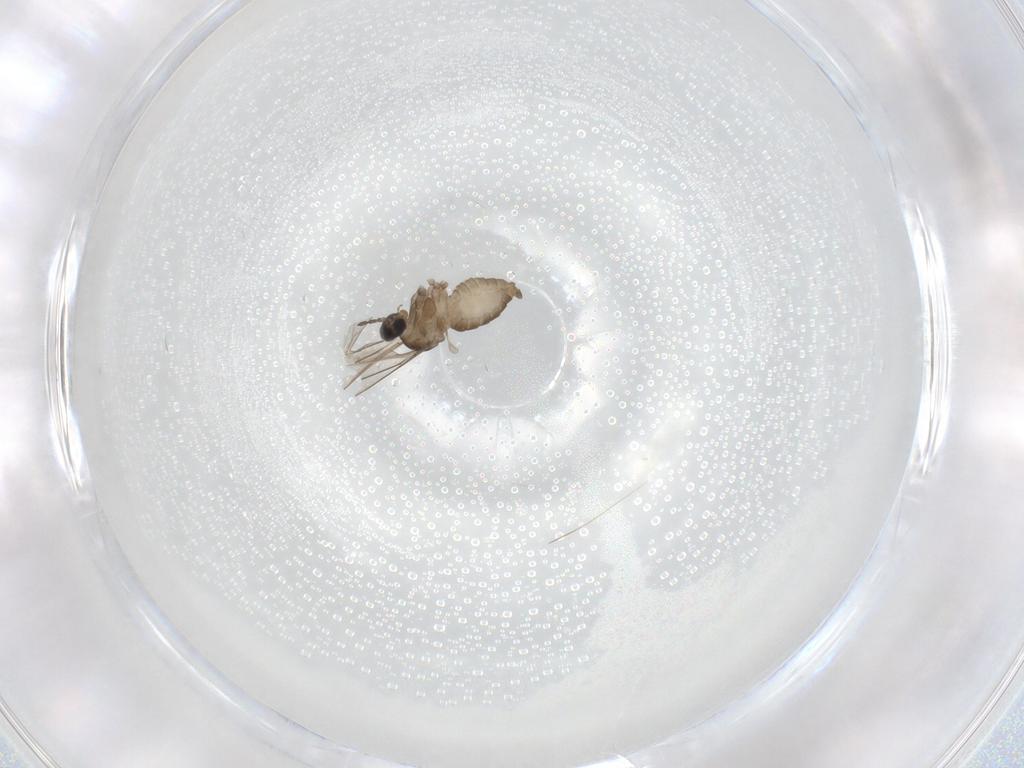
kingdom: Animalia
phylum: Arthropoda
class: Insecta
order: Diptera
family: Cecidomyiidae
